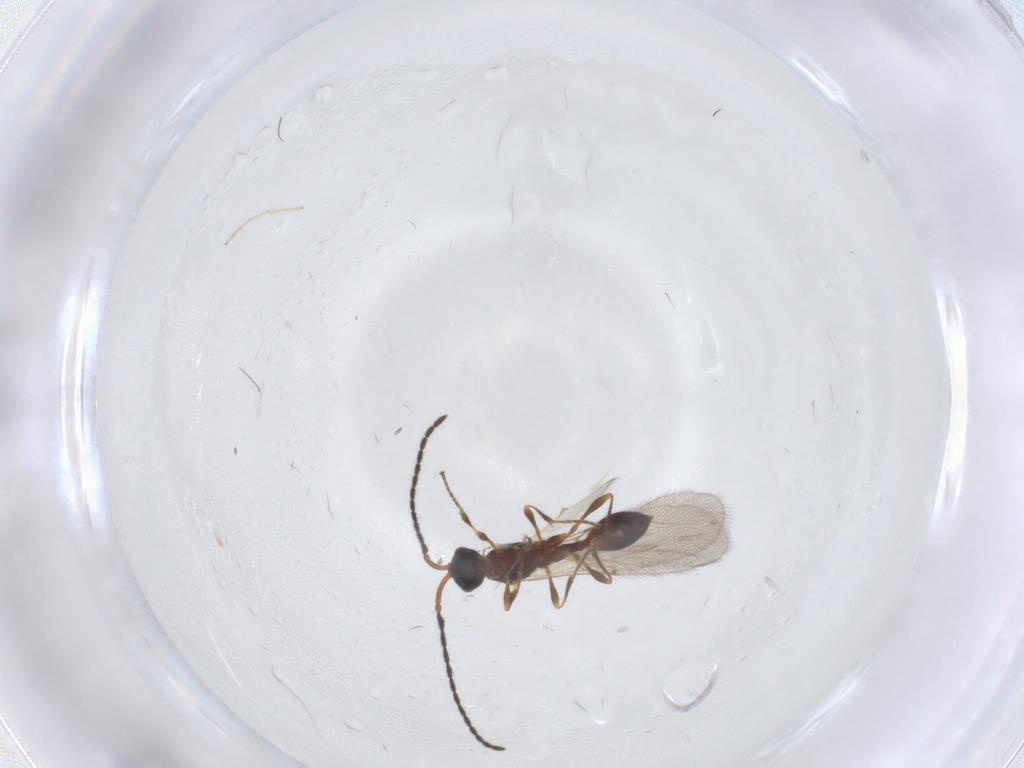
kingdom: Animalia
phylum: Arthropoda
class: Insecta
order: Hymenoptera
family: Diapriidae
